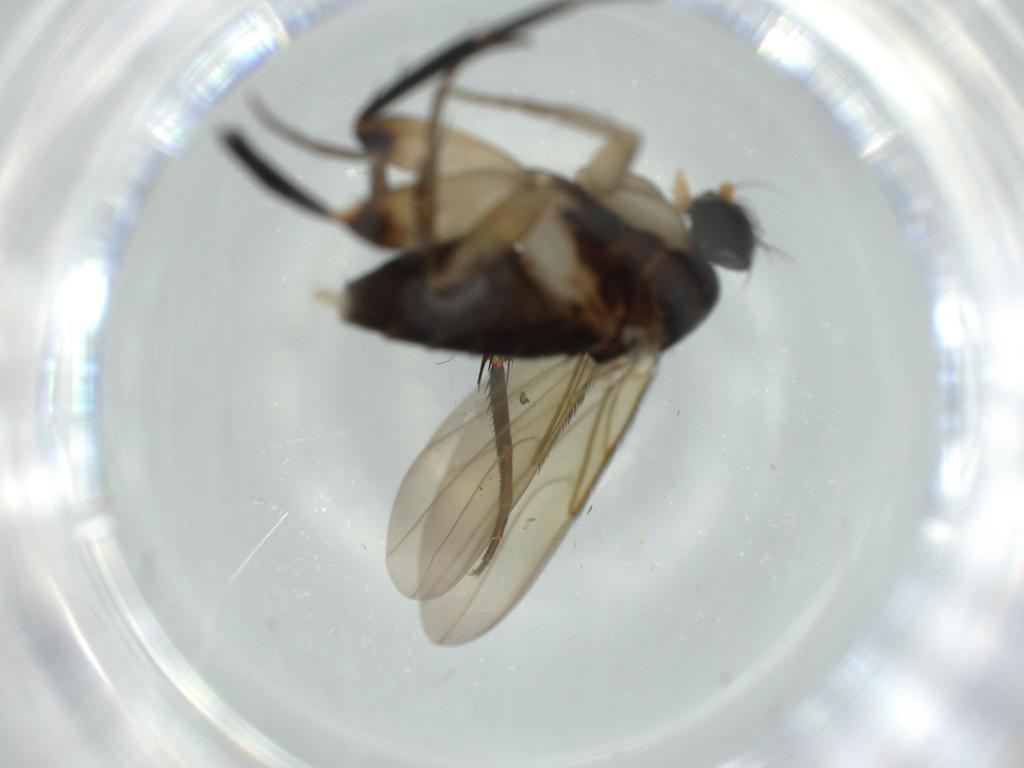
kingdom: Animalia
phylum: Arthropoda
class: Insecta
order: Diptera
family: Phoridae
